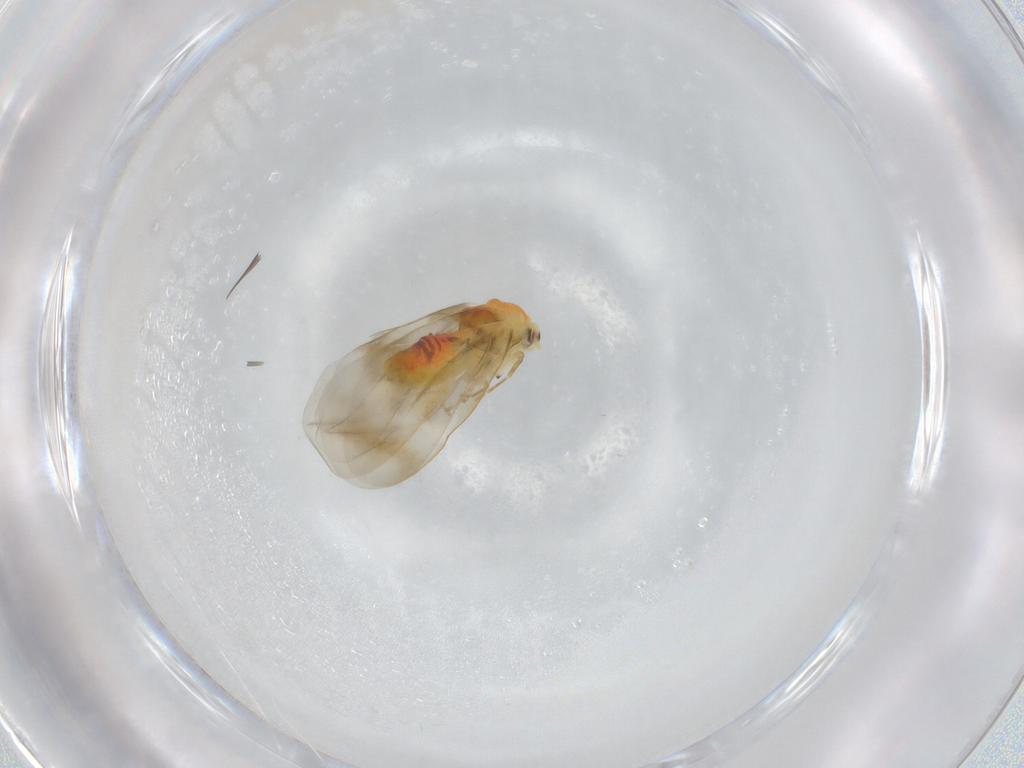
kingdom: Animalia
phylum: Arthropoda
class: Insecta
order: Hemiptera
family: Aleyrodidae
